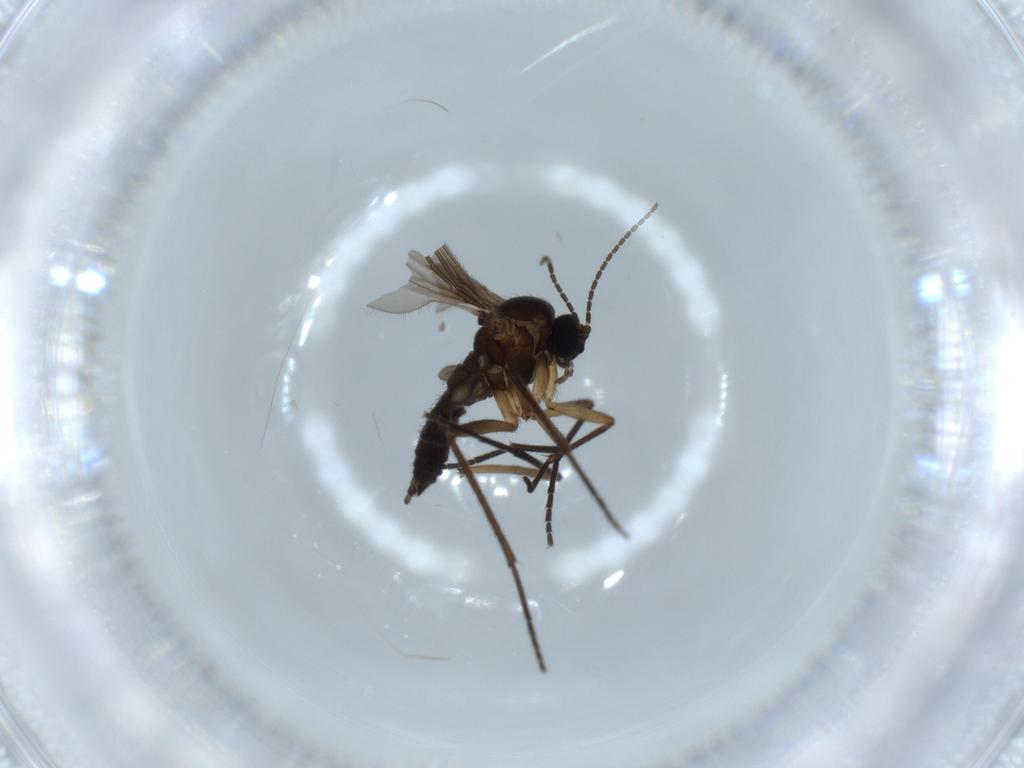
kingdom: Animalia
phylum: Arthropoda
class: Insecta
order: Diptera
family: Sciaridae
